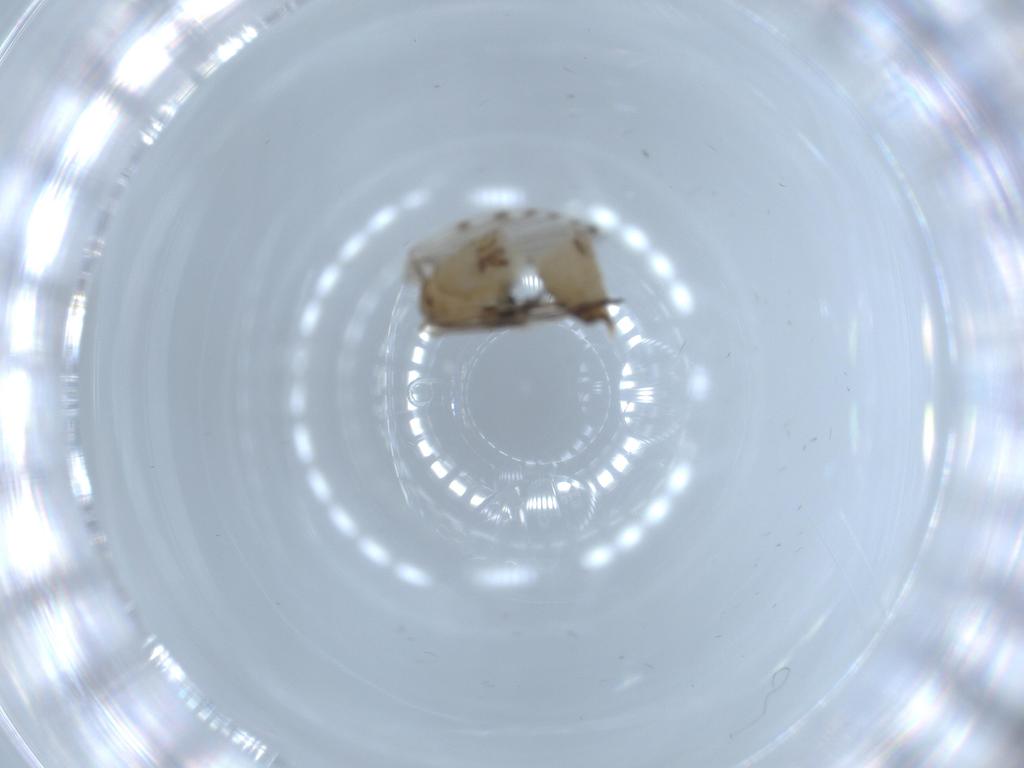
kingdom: Animalia
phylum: Arthropoda
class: Insecta
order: Diptera
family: Psychodidae
